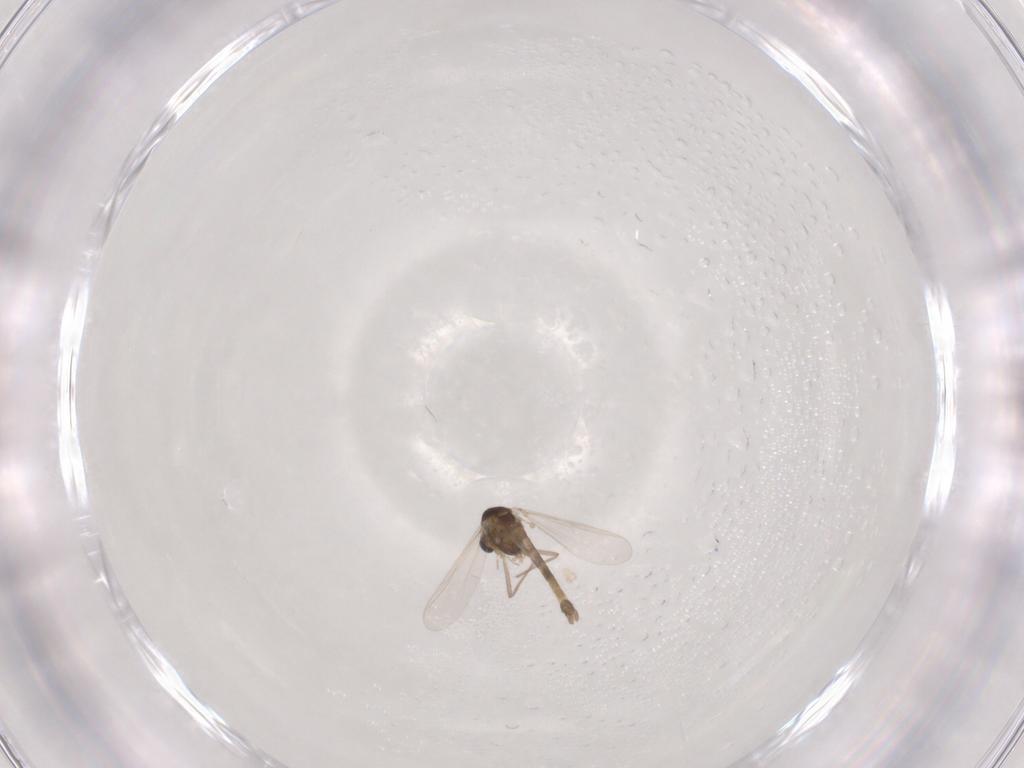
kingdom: Animalia
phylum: Arthropoda
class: Insecta
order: Diptera
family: Chironomidae
